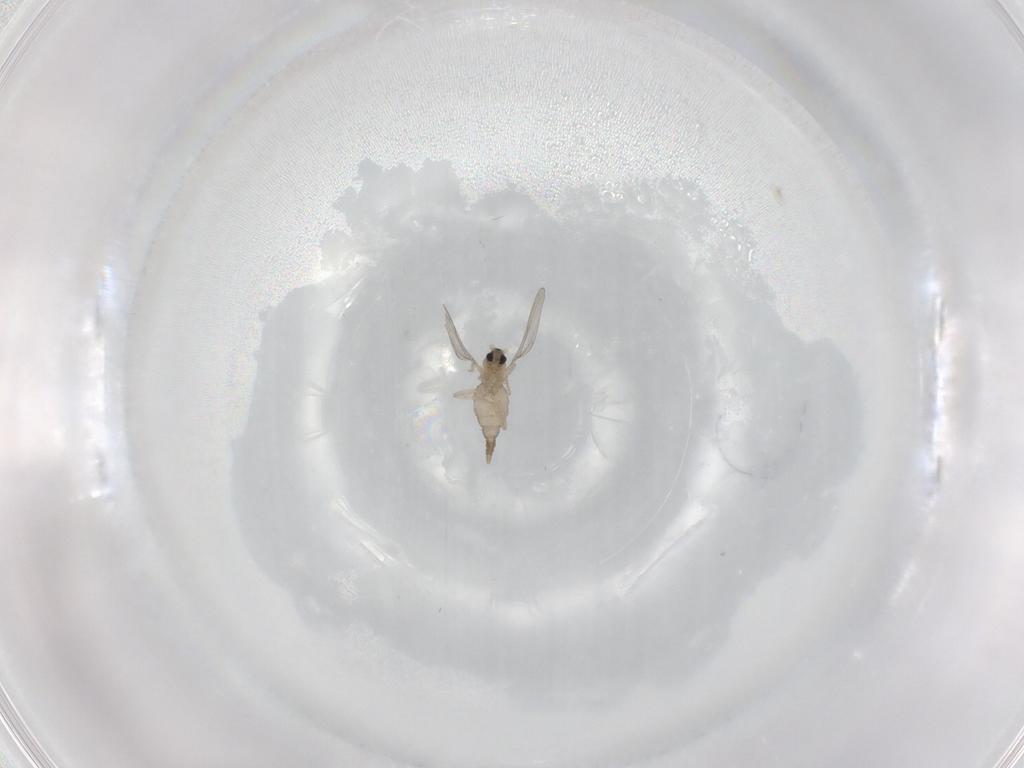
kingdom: Animalia
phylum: Arthropoda
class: Insecta
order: Diptera
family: Cecidomyiidae
